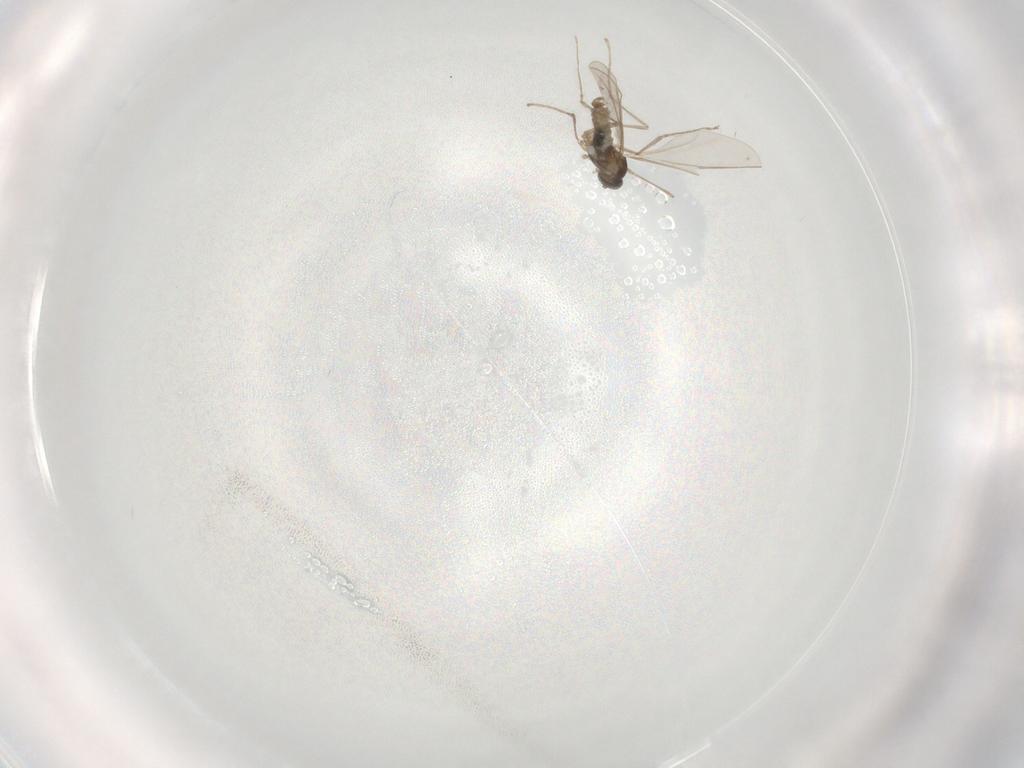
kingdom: Animalia
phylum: Arthropoda
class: Insecta
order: Diptera
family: Cecidomyiidae
